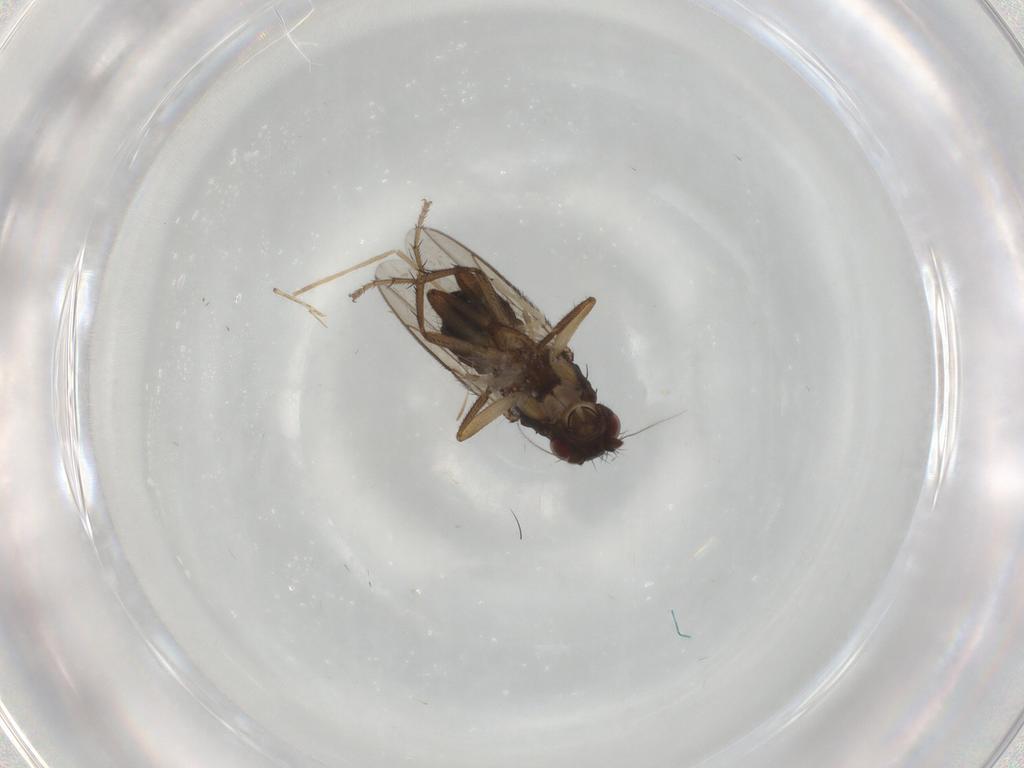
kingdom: Animalia
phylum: Arthropoda
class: Insecta
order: Diptera
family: Sphaeroceridae
